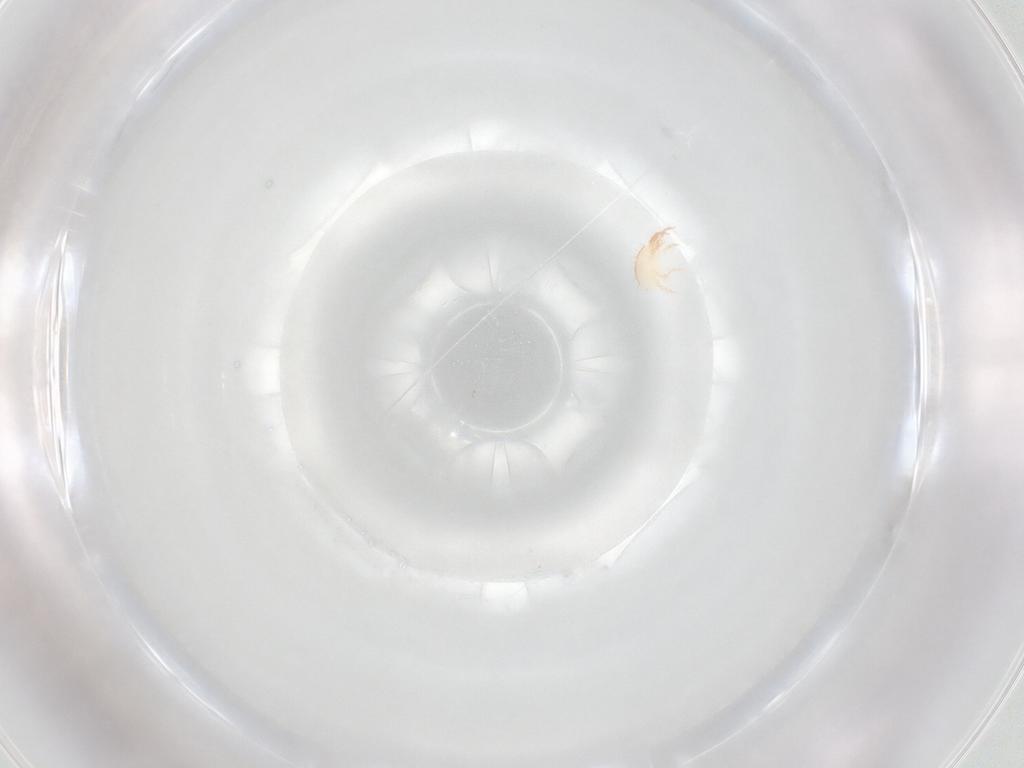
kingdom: Animalia
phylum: Arthropoda
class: Arachnida
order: Trombidiformes
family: Stigmaeidae
